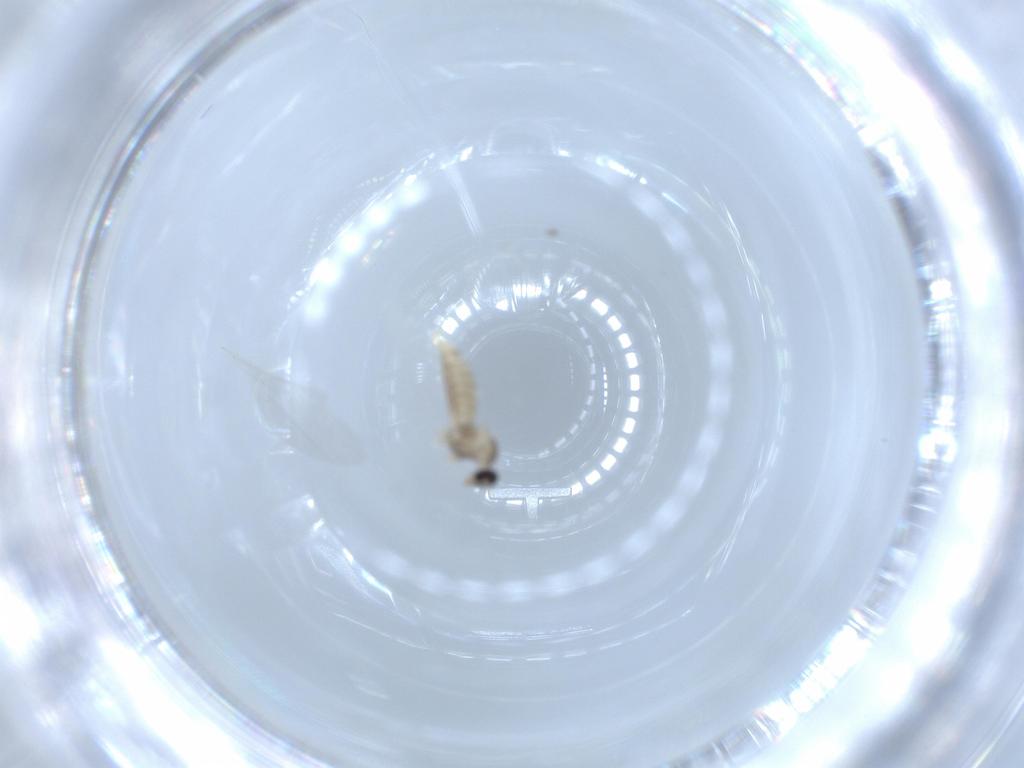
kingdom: Animalia
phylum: Arthropoda
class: Insecta
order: Diptera
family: Cecidomyiidae
